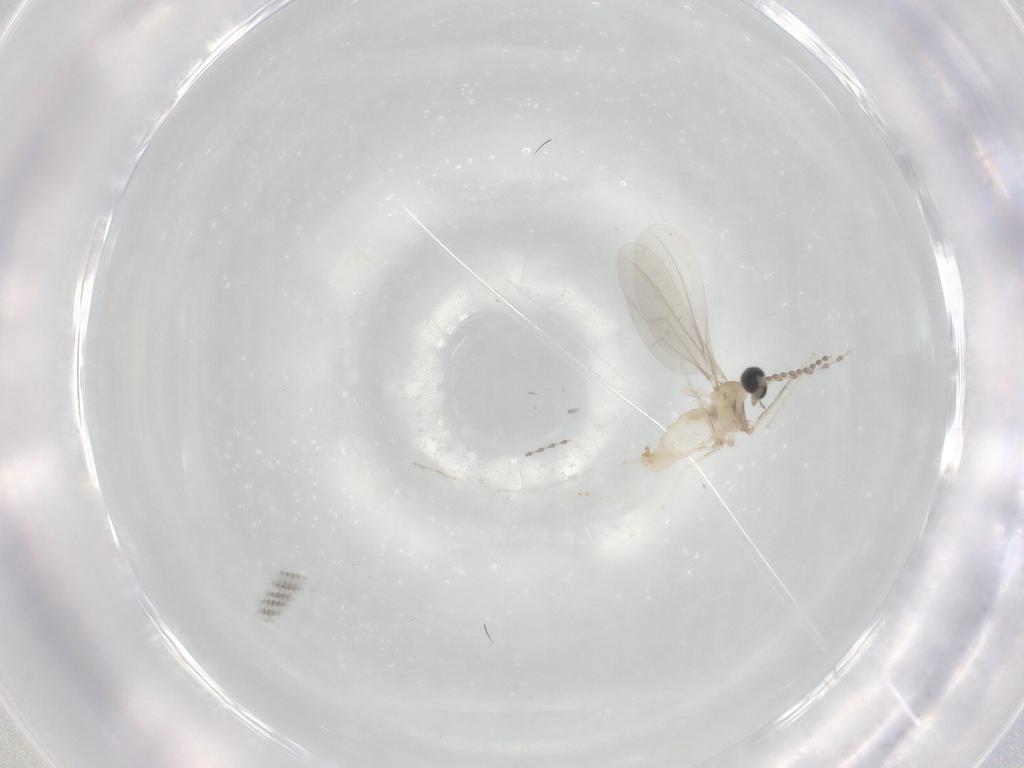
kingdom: Animalia
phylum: Arthropoda
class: Insecta
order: Diptera
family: Cecidomyiidae
